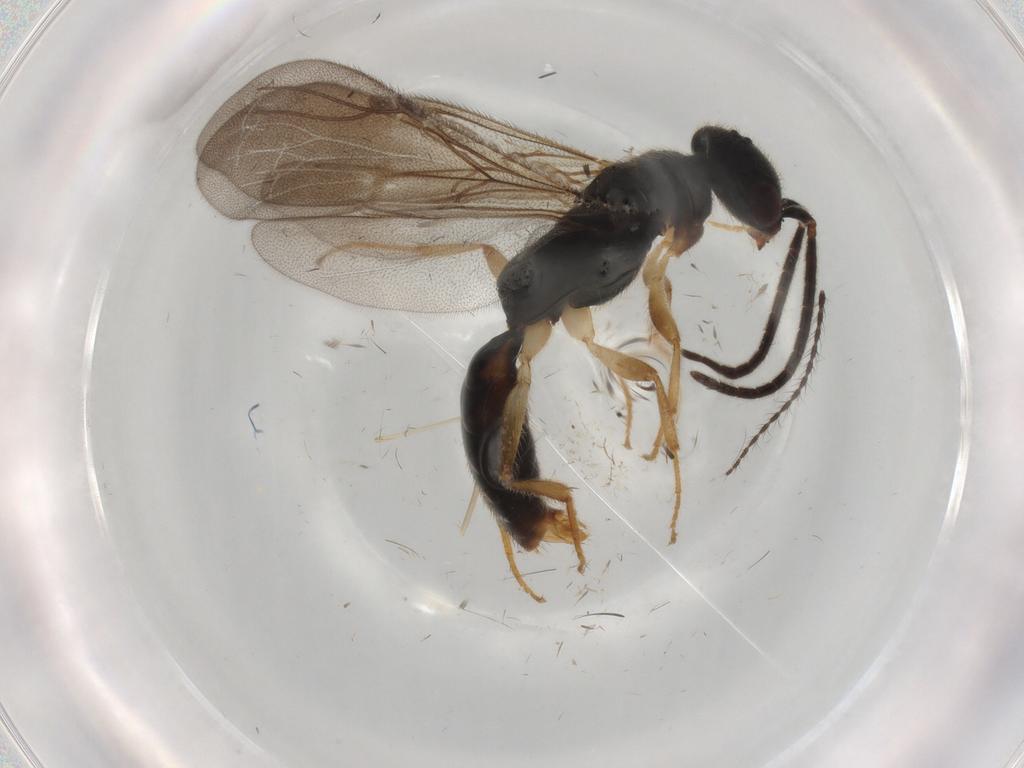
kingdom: Animalia
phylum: Arthropoda
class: Insecta
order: Hymenoptera
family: Bethylidae
